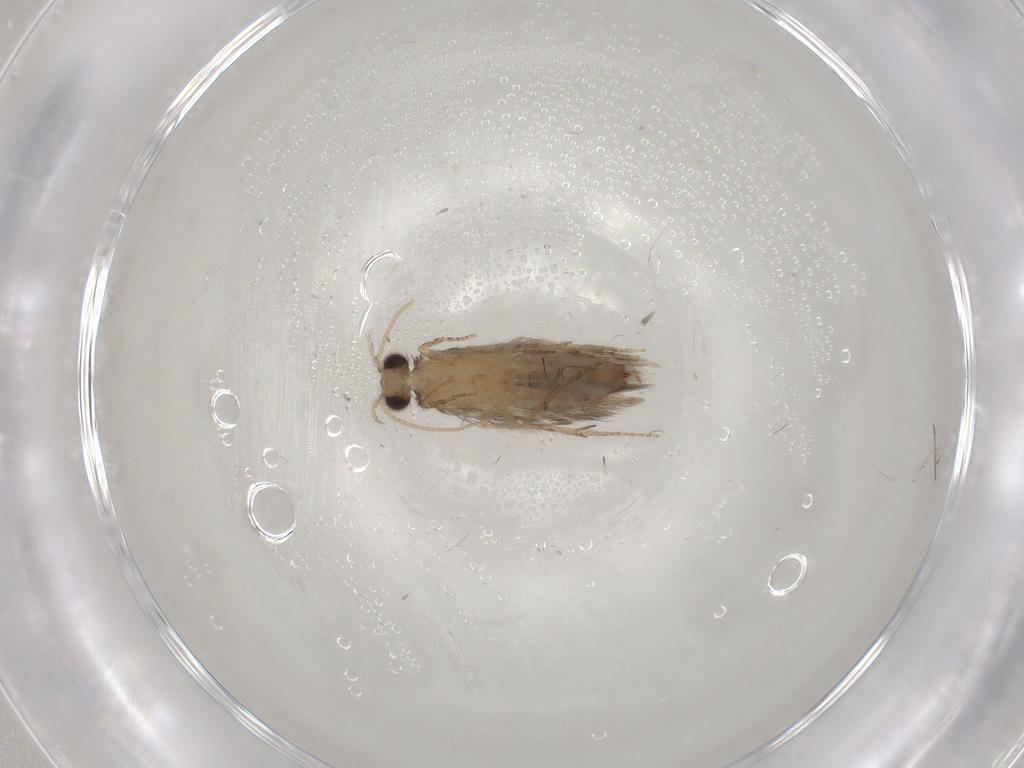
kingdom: Animalia
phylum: Arthropoda
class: Insecta
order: Trichoptera
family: Hydroptilidae
